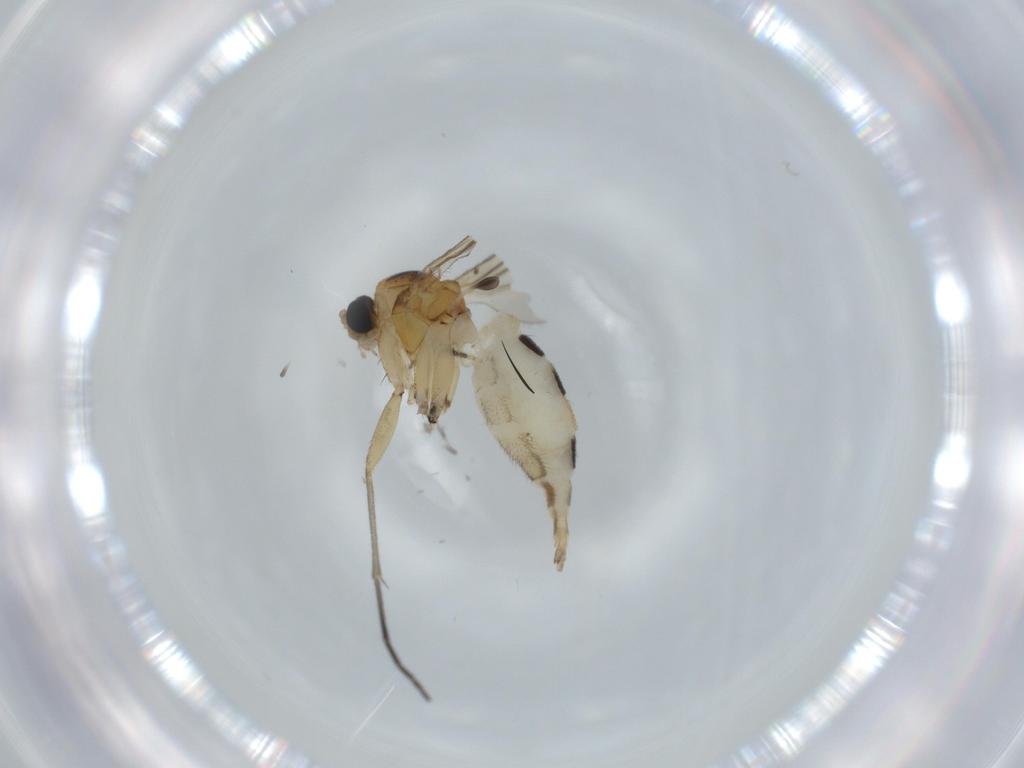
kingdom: Animalia
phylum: Arthropoda
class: Insecta
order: Diptera
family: Sciaridae
